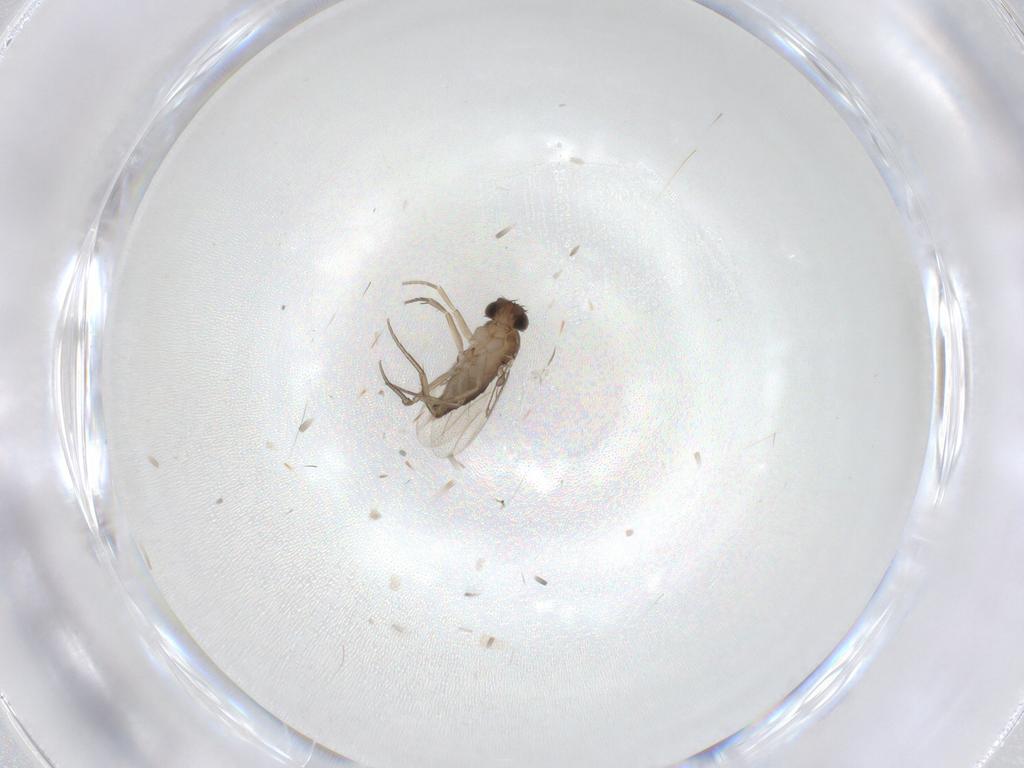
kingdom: Animalia
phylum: Arthropoda
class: Insecta
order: Diptera
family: Phoridae
